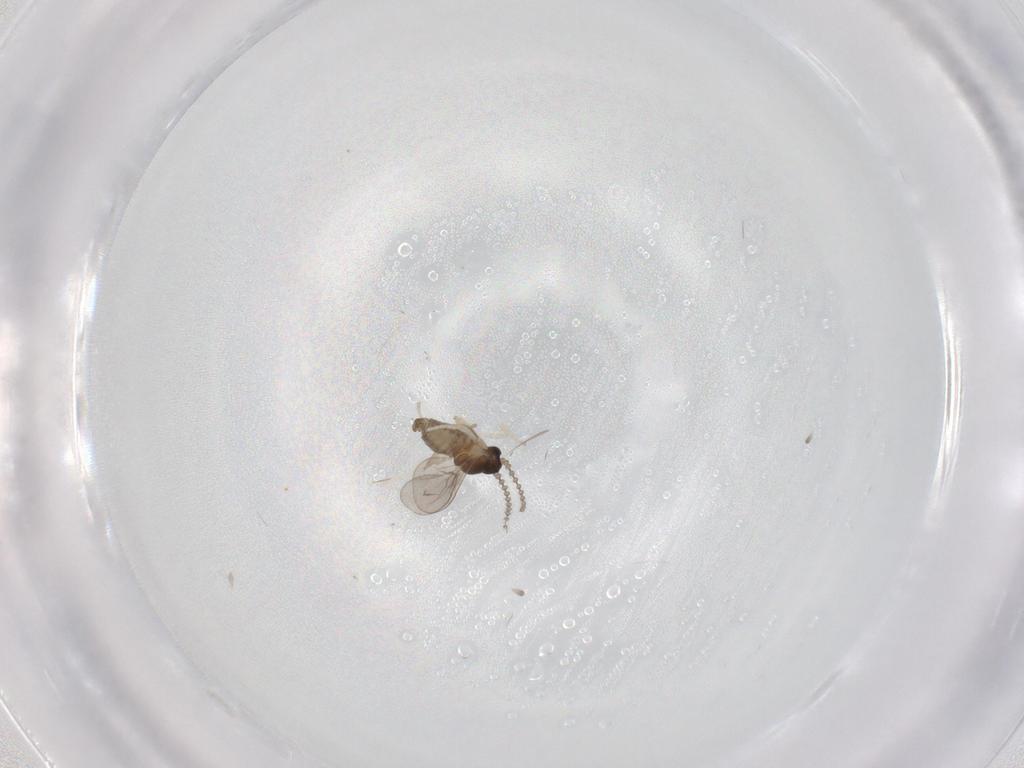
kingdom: Animalia
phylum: Arthropoda
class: Insecta
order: Diptera
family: Cecidomyiidae
